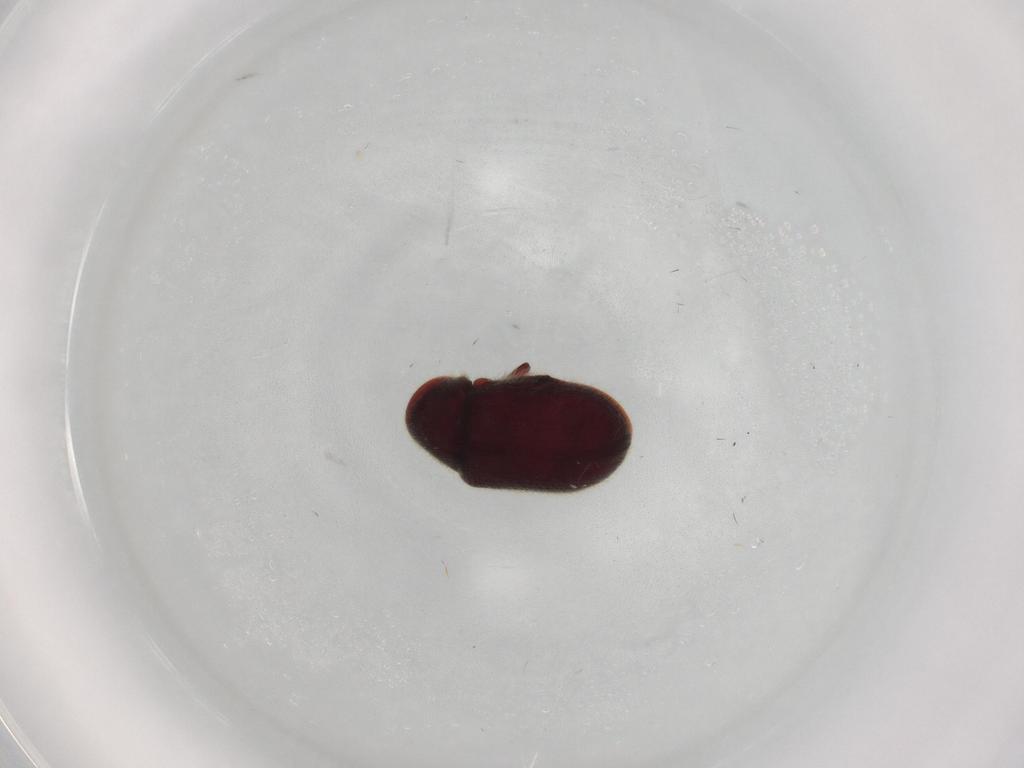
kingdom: Animalia
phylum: Arthropoda
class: Insecta
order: Coleoptera
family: Ptinidae
